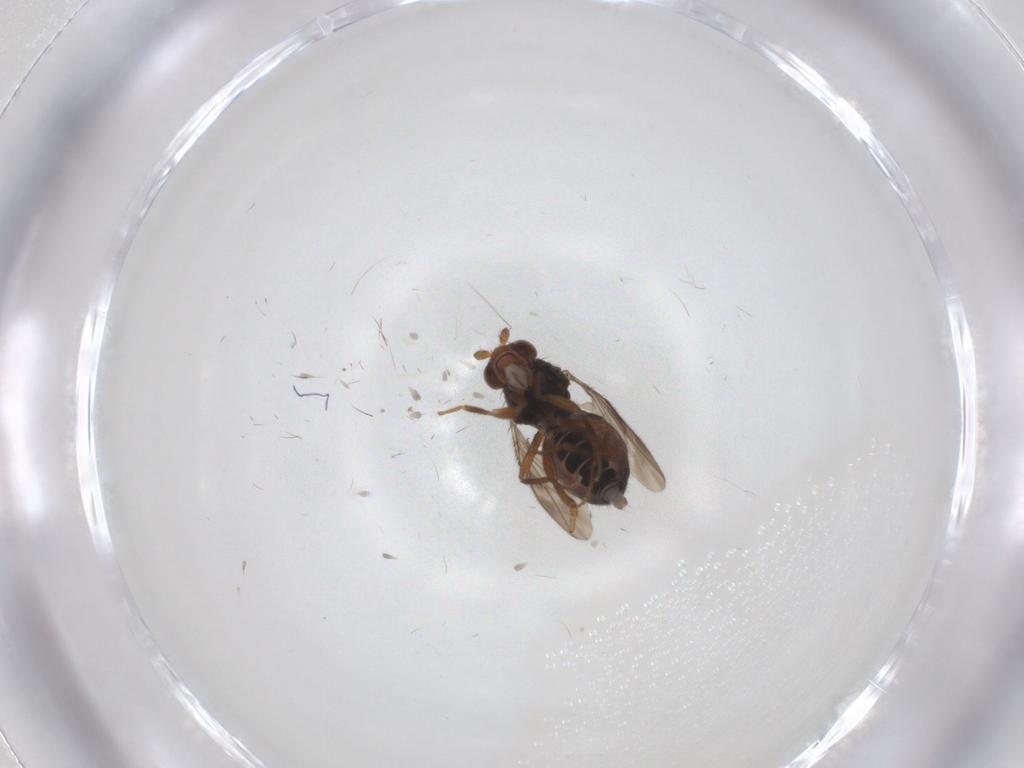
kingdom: Animalia
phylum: Arthropoda
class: Insecta
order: Diptera
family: Sphaeroceridae
